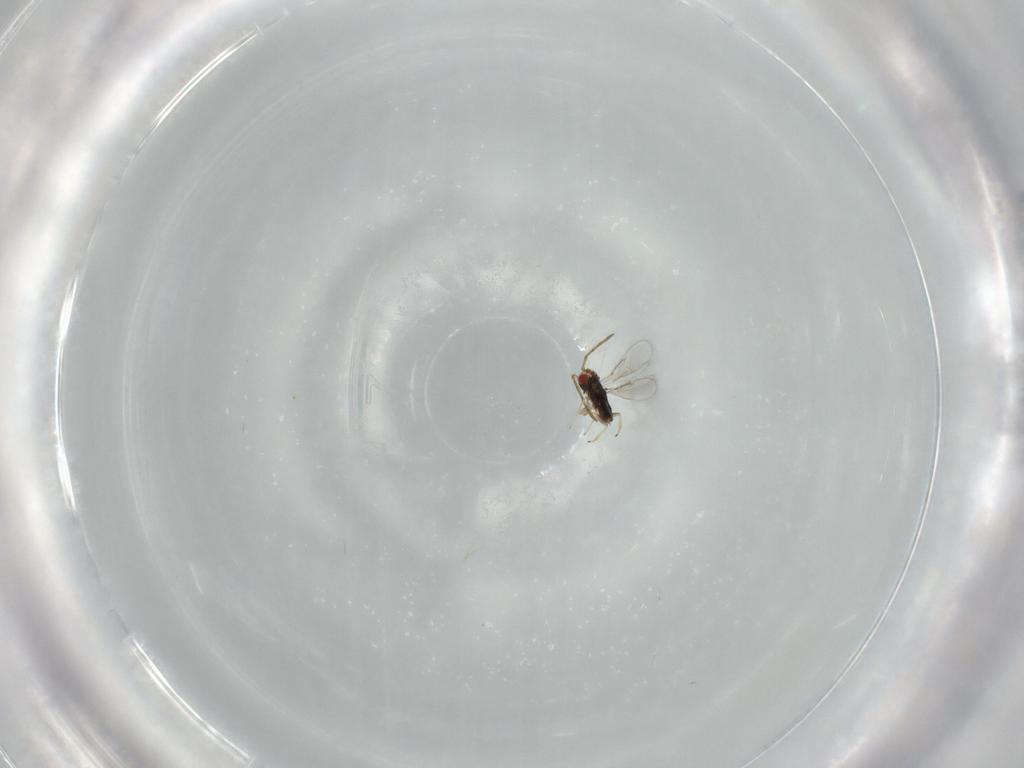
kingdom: Animalia
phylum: Arthropoda
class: Insecta
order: Hymenoptera
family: Azotidae
